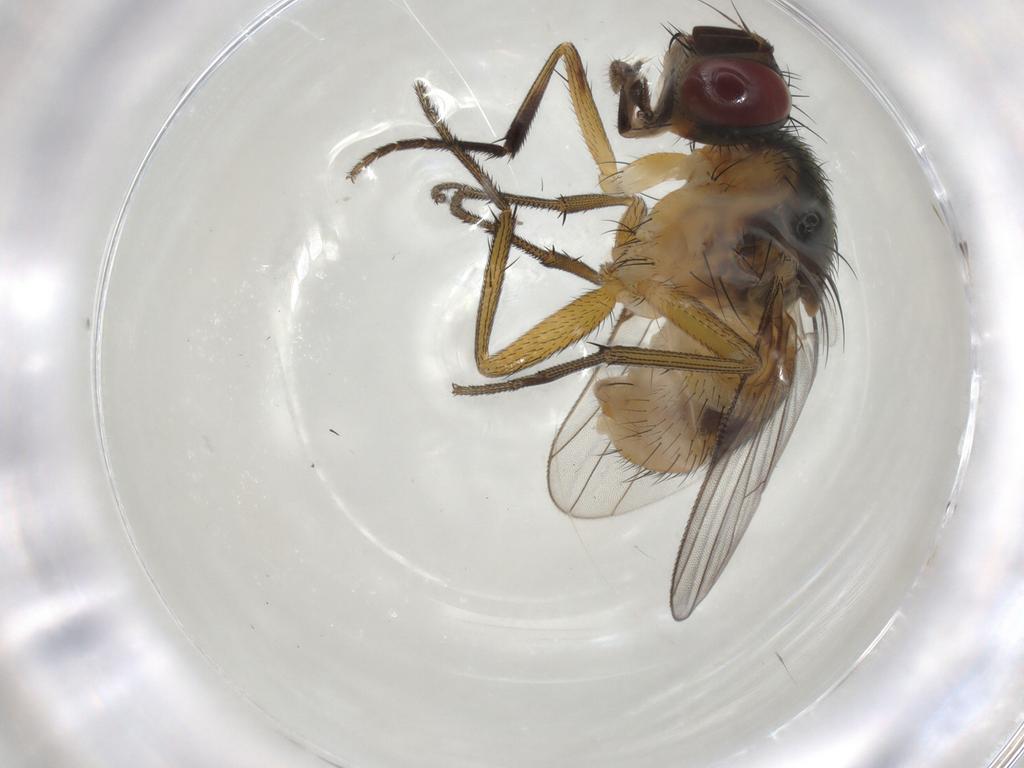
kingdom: Animalia
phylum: Arthropoda
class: Insecta
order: Diptera
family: Muscidae
